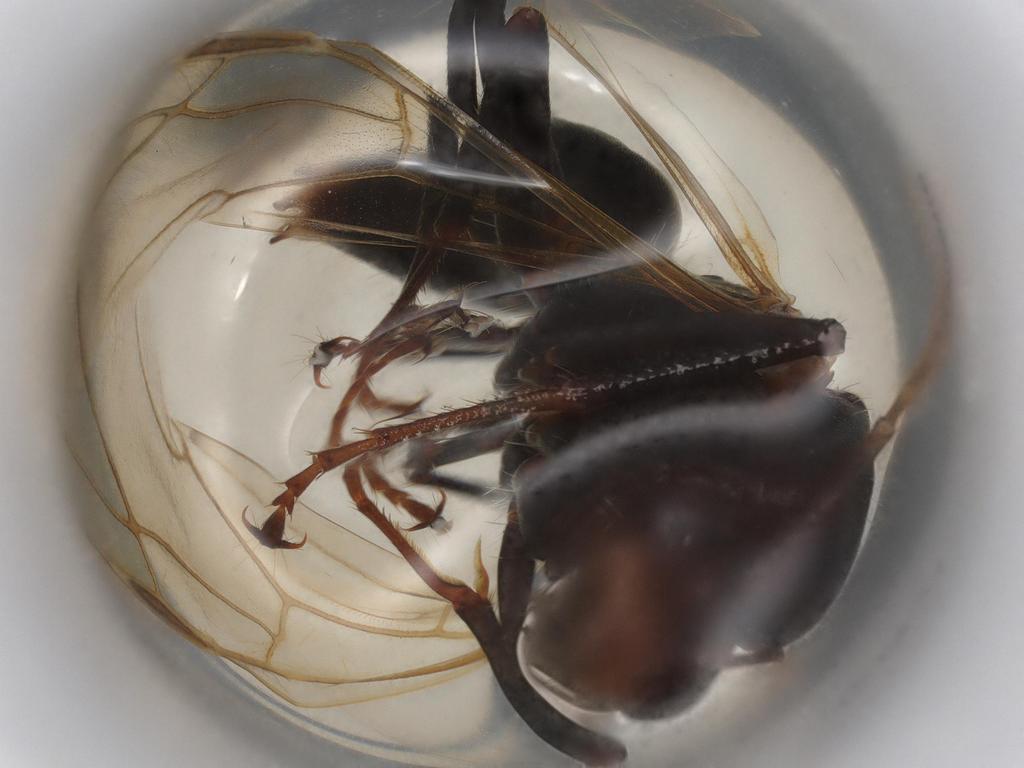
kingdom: Animalia
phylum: Arthropoda
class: Insecta
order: Hymenoptera
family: Formicidae
